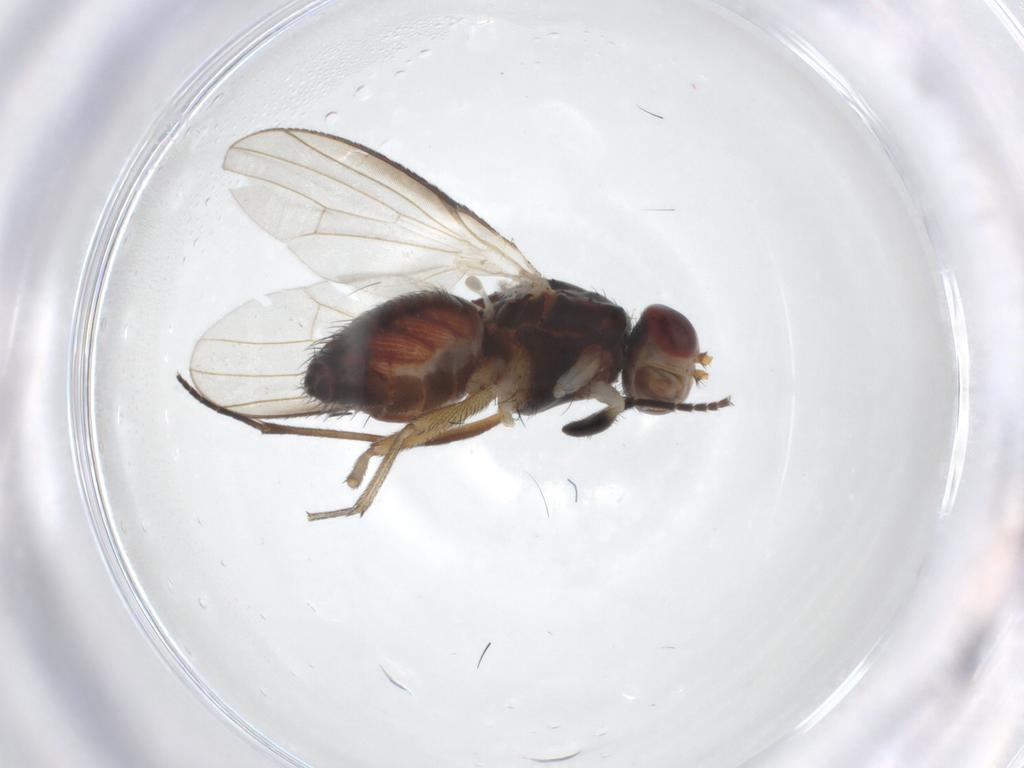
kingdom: Animalia
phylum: Arthropoda
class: Insecta
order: Diptera
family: Heleomyzidae
